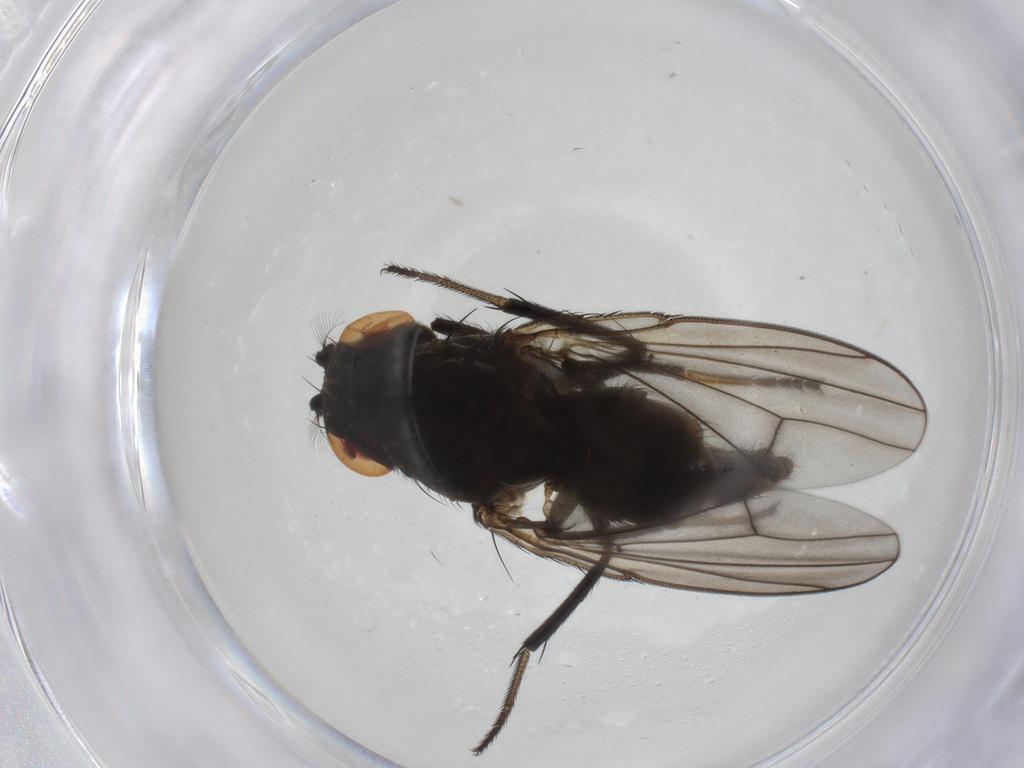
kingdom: Animalia
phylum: Arthropoda
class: Insecta
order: Diptera
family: Ephydridae
